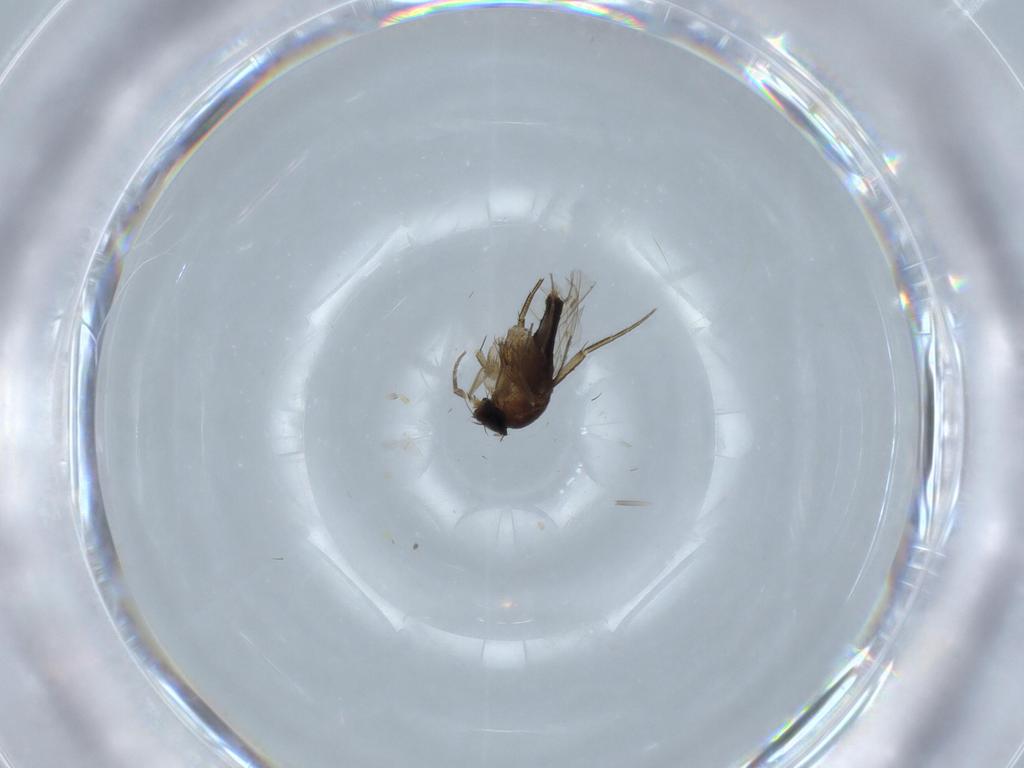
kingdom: Animalia
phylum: Arthropoda
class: Insecta
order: Diptera
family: Phoridae
